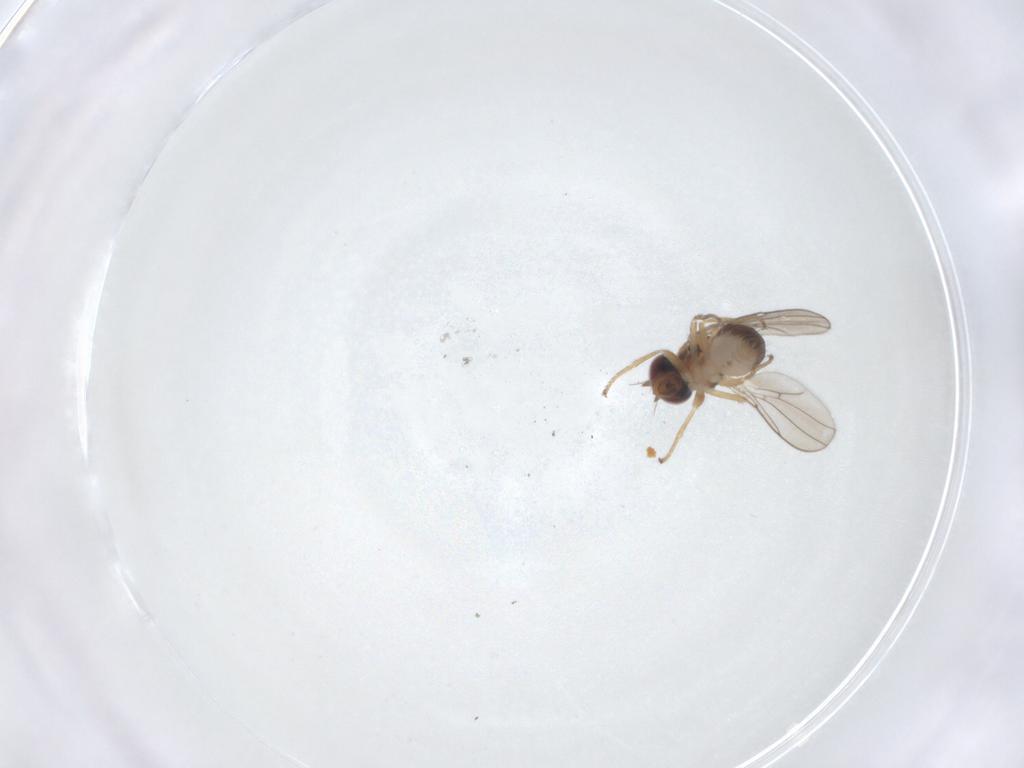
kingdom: Animalia
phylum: Arthropoda
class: Insecta
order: Diptera
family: Ephydridae
